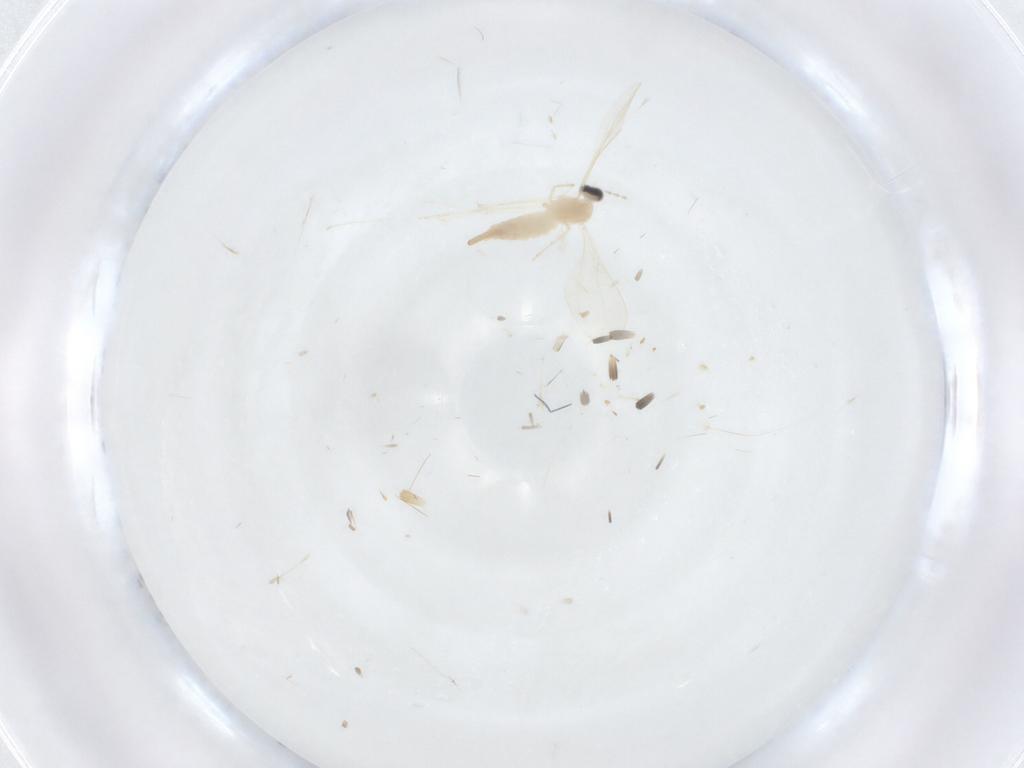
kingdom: Animalia
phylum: Arthropoda
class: Insecta
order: Diptera
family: Cecidomyiidae
